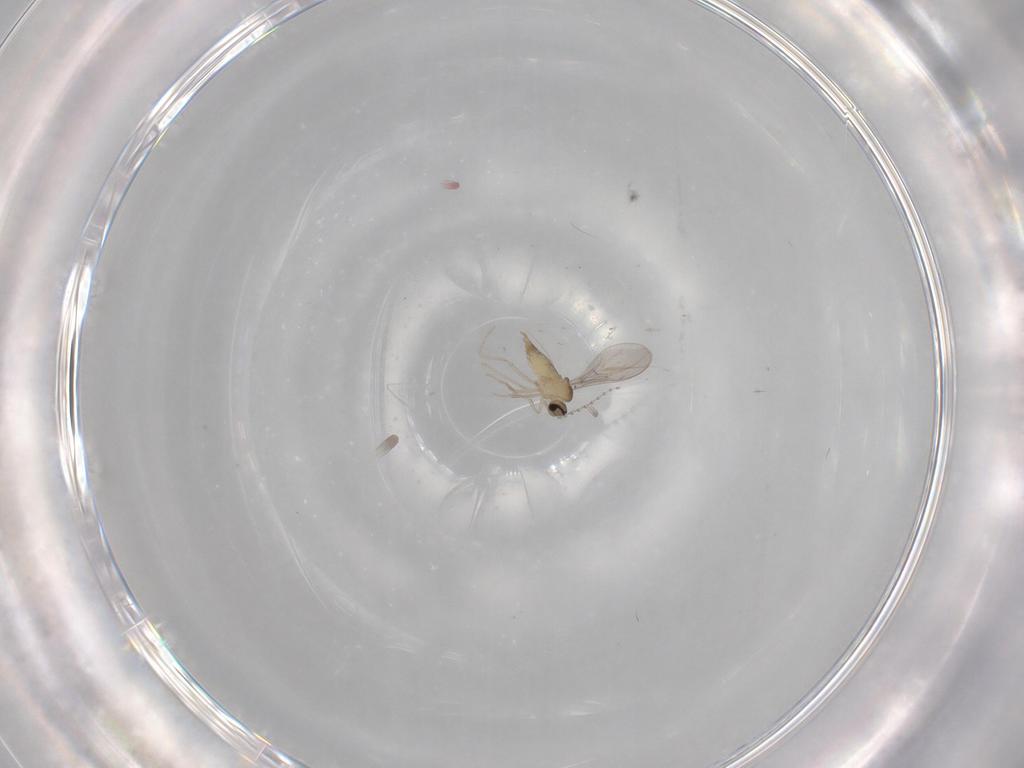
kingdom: Animalia
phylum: Arthropoda
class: Insecta
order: Diptera
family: Cecidomyiidae
